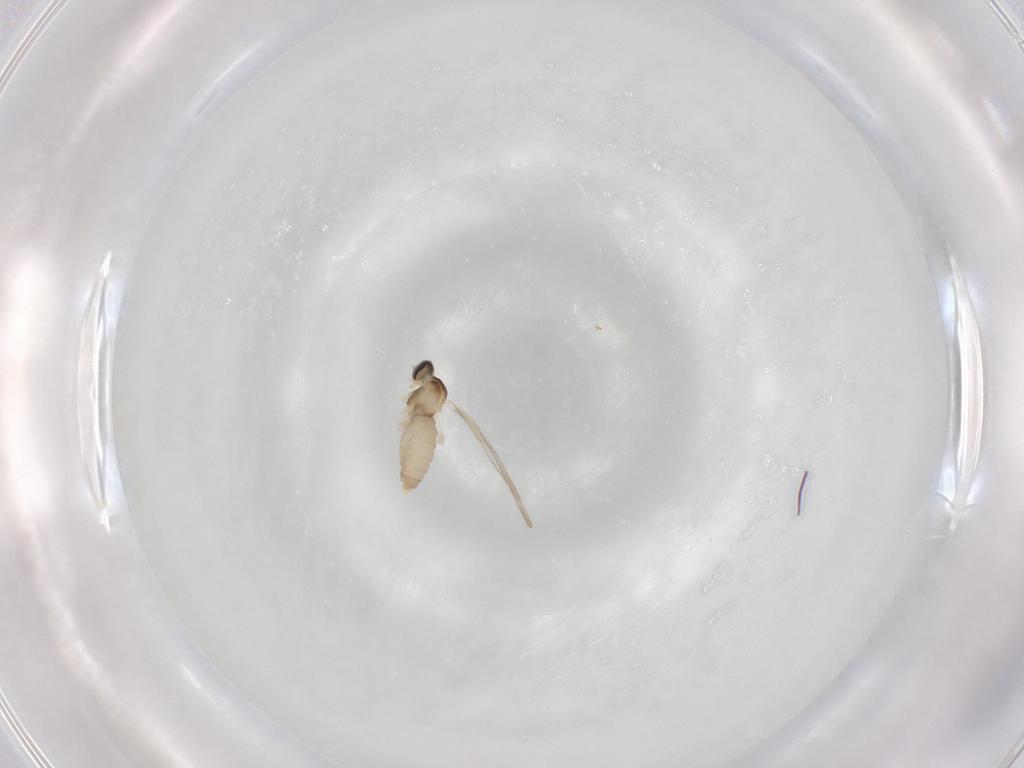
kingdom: Animalia
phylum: Arthropoda
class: Insecta
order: Diptera
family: Cecidomyiidae
